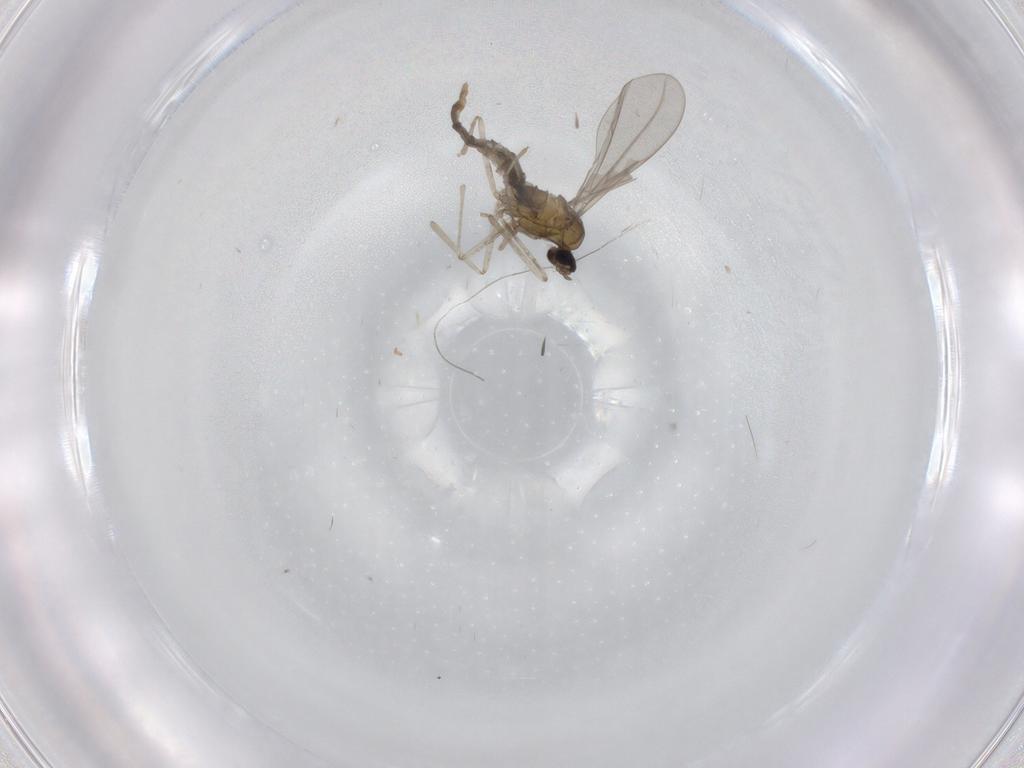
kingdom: Animalia
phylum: Arthropoda
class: Insecta
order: Diptera
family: Cecidomyiidae
